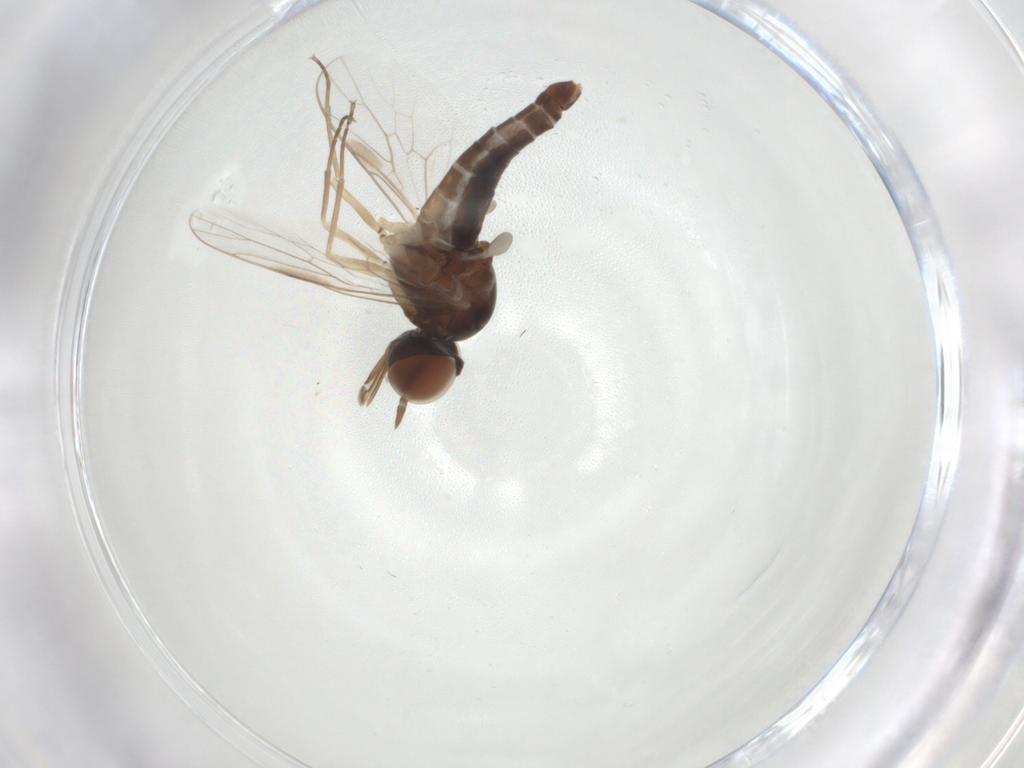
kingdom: Animalia
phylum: Arthropoda
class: Insecta
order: Diptera
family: Scenopinidae
